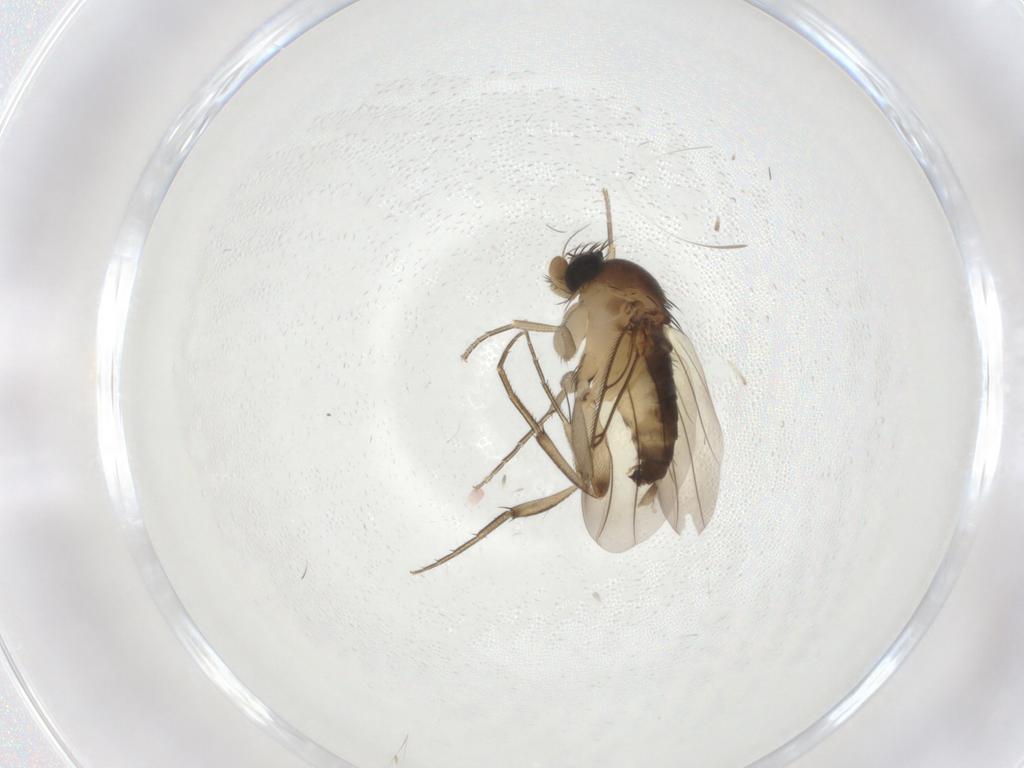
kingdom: Animalia
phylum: Arthropoda
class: Insecta
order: Diptera
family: Phoridae
